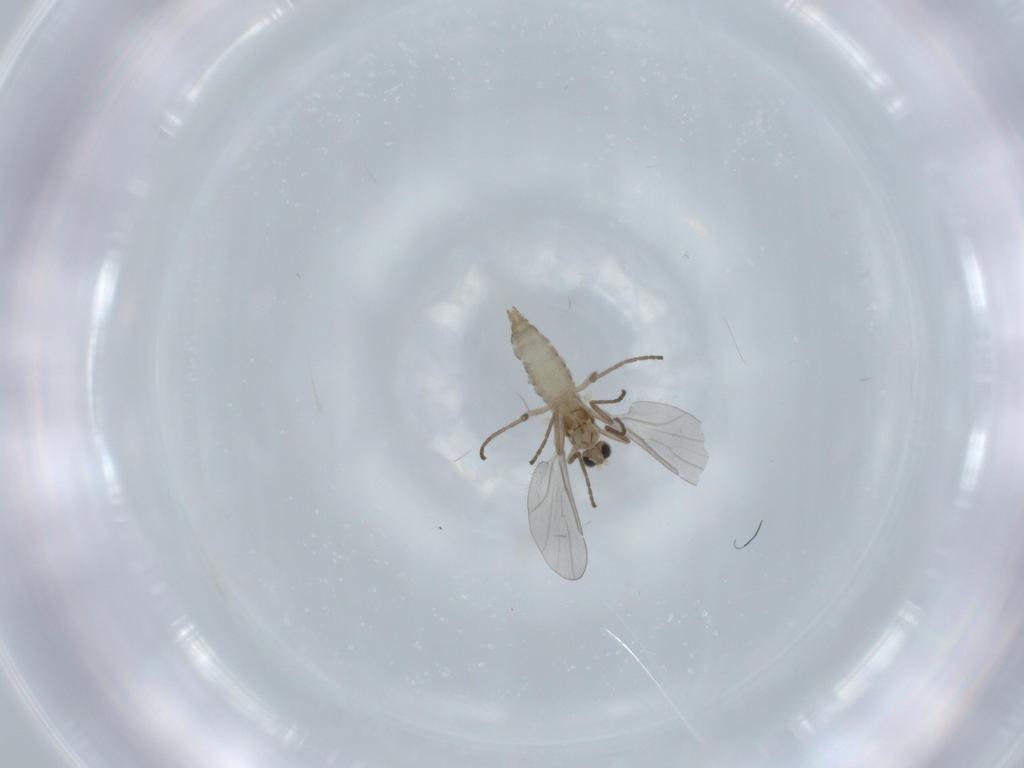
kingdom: Animalia
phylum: Arthropoda
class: Insecta
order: Diptera
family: Cecidomyiidae
